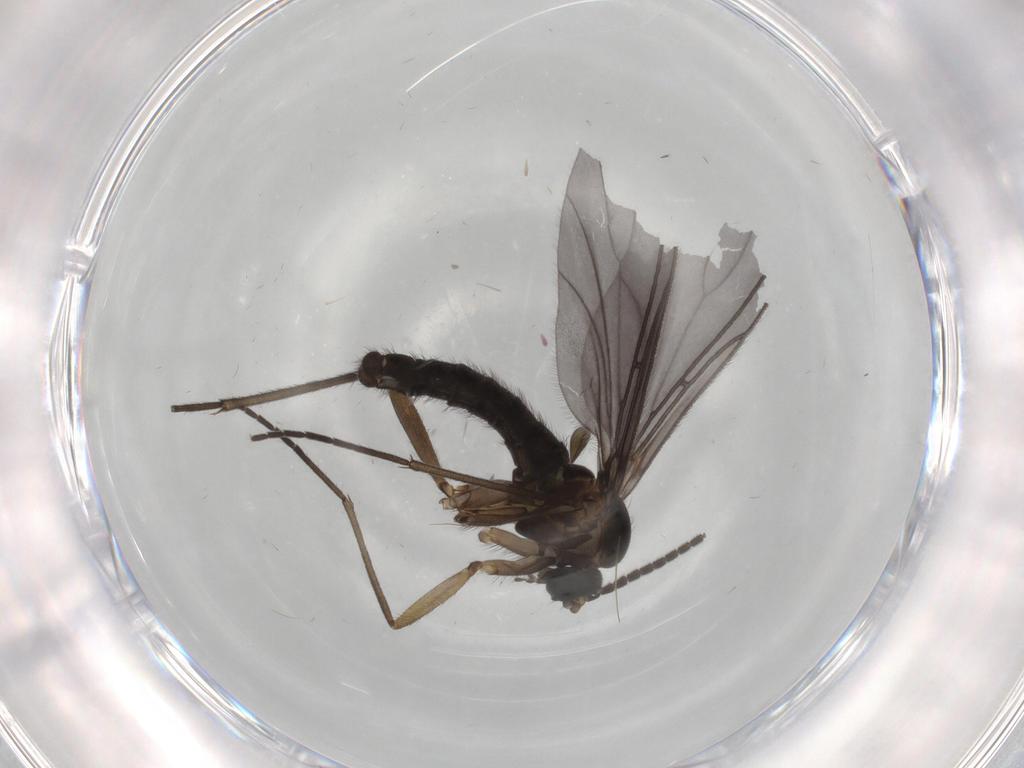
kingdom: Animalia
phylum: Arthropoda
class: Insecta
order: Diptera
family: Sciaridae
